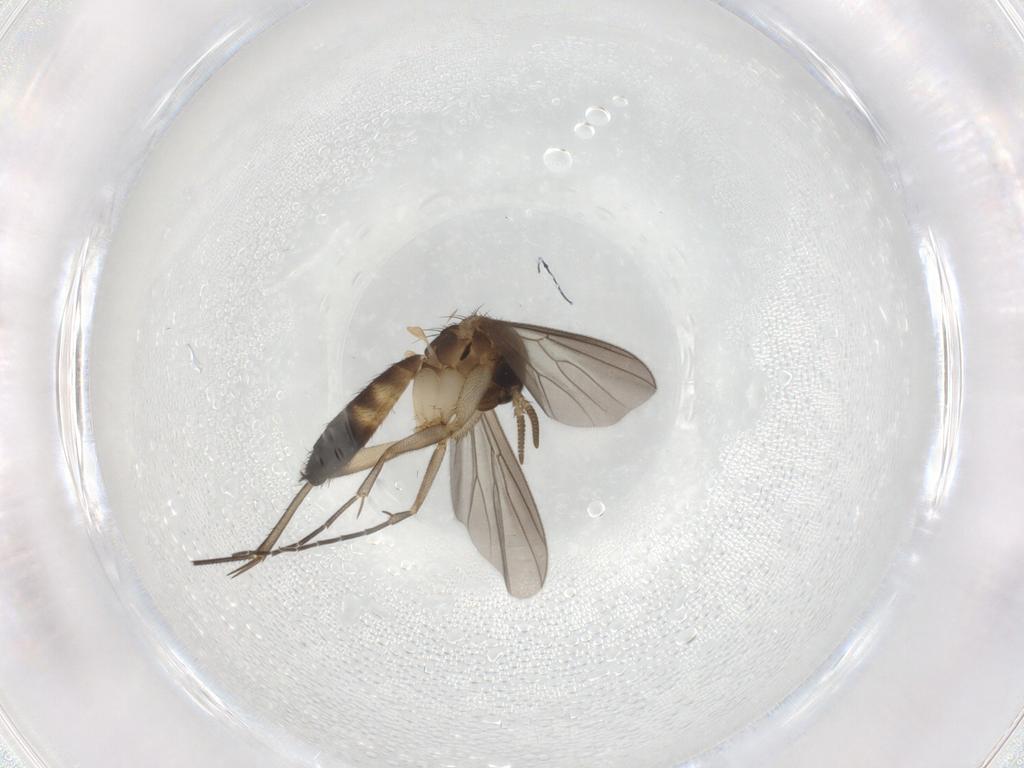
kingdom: Animalia
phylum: Arthropoda
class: Insecta
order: Diptera
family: Mycetophilidae
